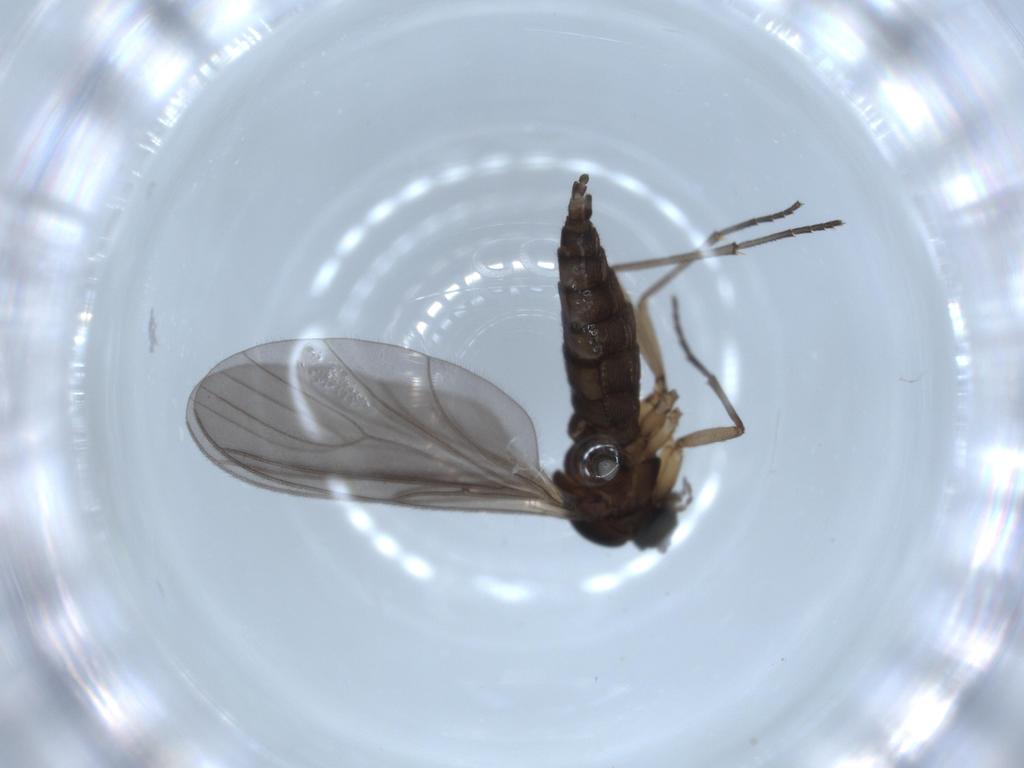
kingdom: Animalia
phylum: Arthropoda
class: Insecta
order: Diptera
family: Sciaridae
